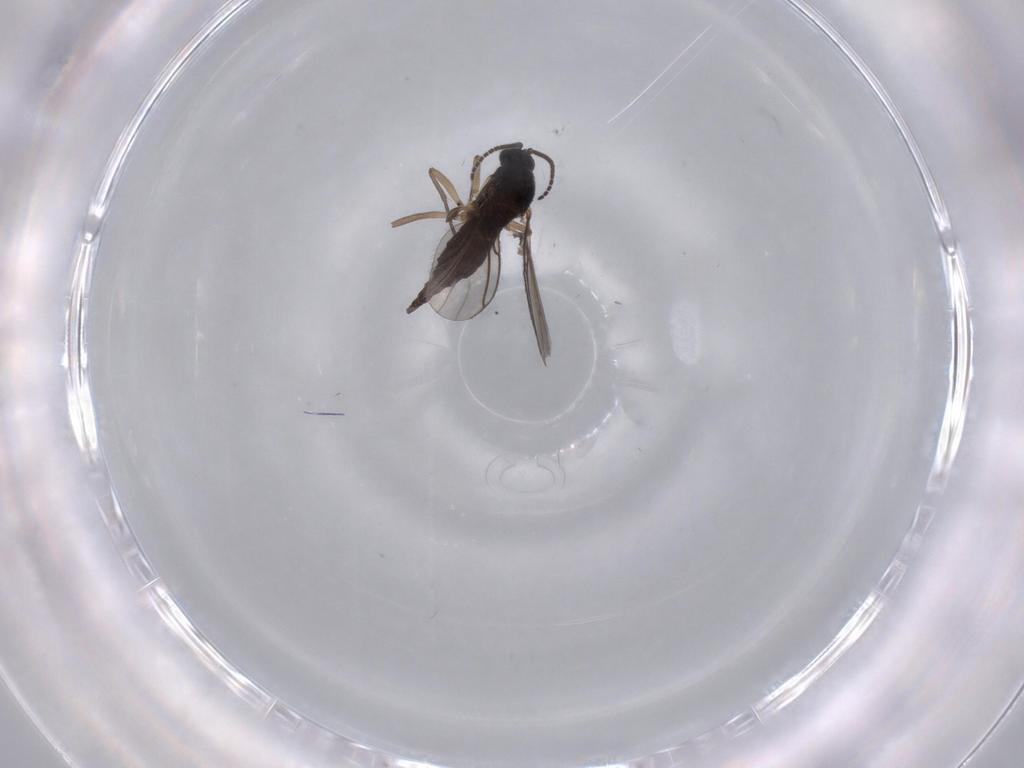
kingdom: Animalia
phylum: Arthropoda
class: Insecta
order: Diptera
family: Sciaridae
